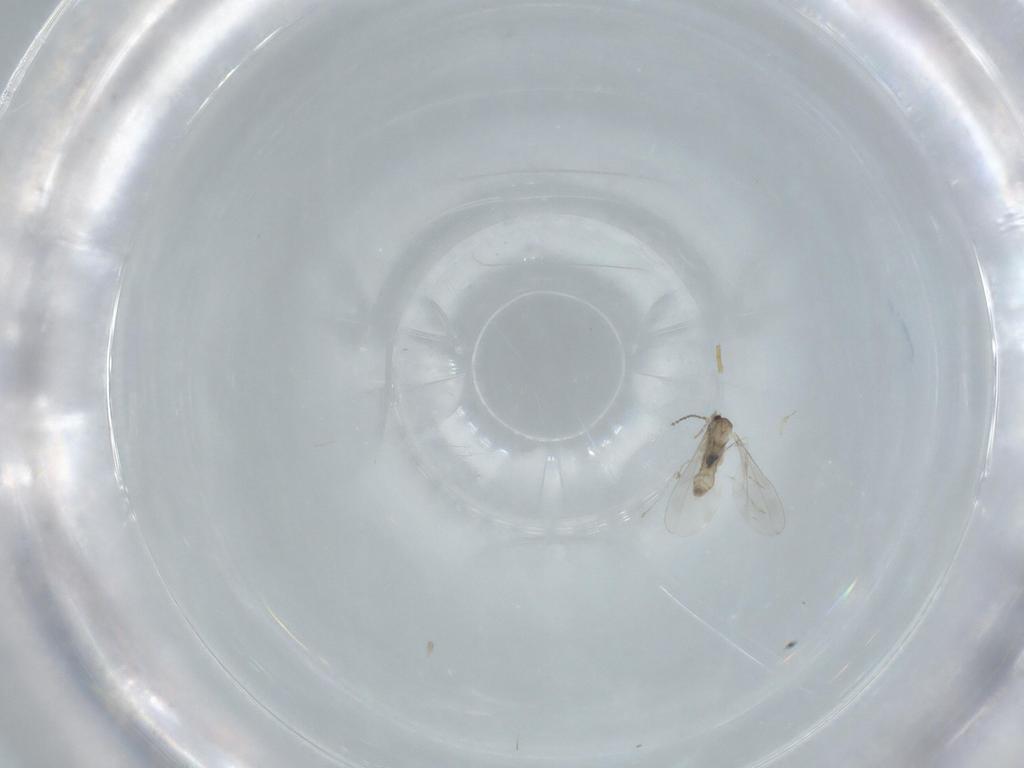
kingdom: Animalia
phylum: Arthropoda
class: Insecta
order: Diptera
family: Cecidomyiidae
